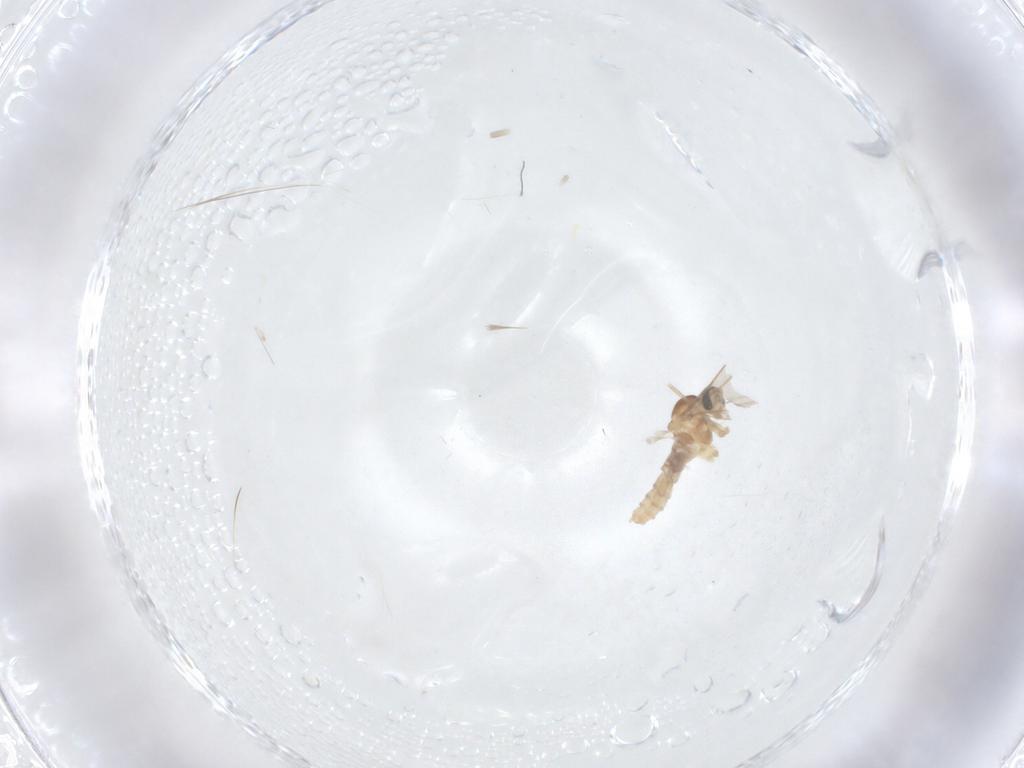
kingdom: Animalia
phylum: Arthropoda
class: Insecta
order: Diptera
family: Cecidomyiidae
